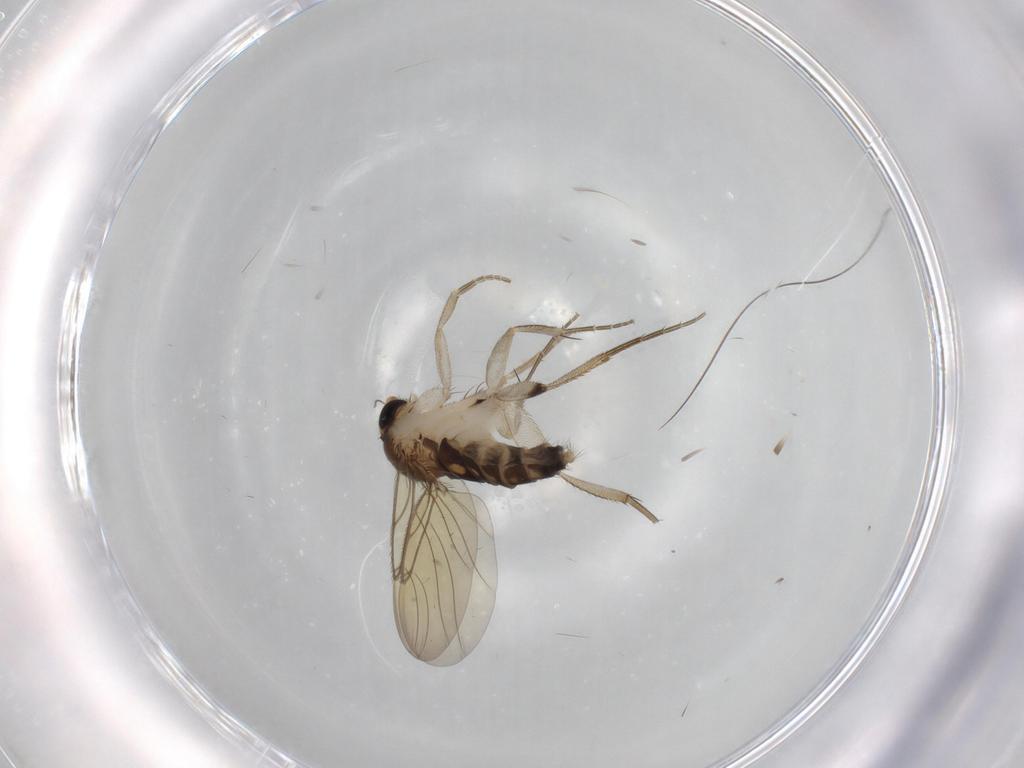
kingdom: Animalia
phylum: Arthropoda
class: Insecta
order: Diptera
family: Phoridae
